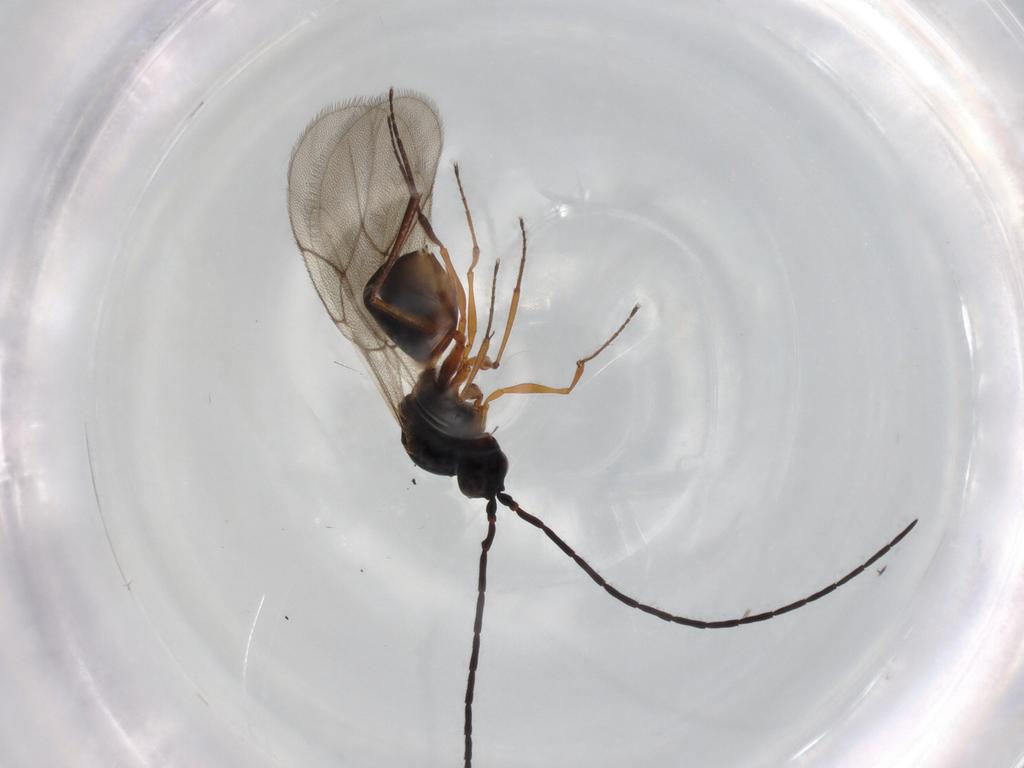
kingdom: Animalia
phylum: Arthropoda
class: Insecta
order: Hymenoptera
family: Figitidae
